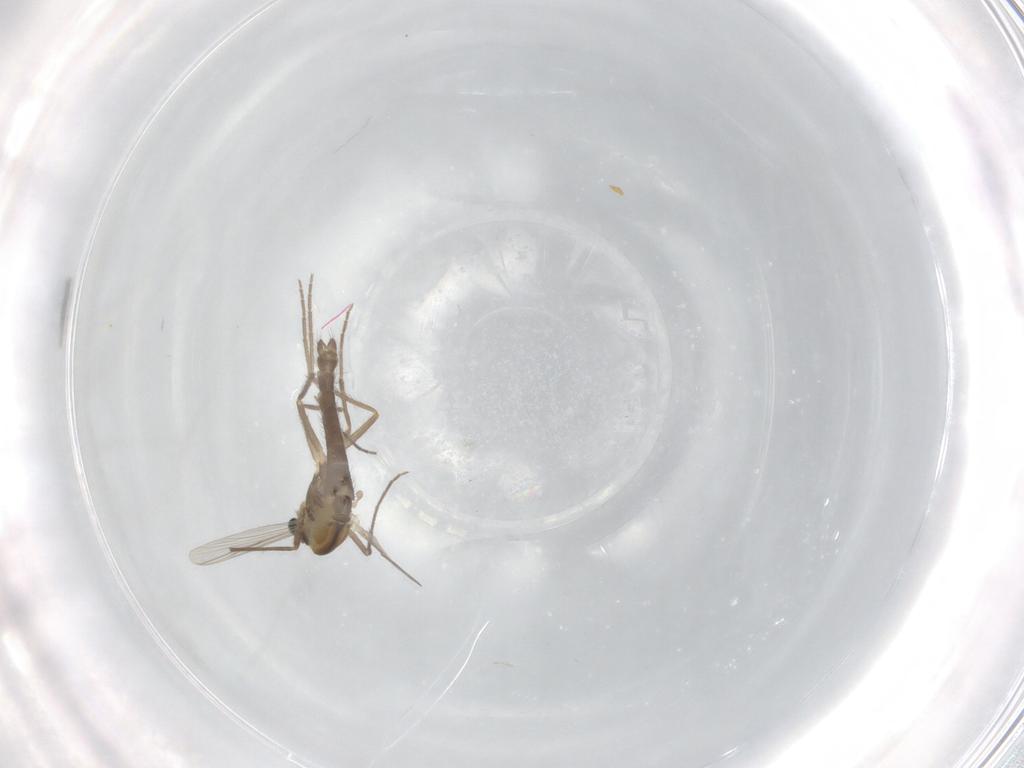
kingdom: Animalia
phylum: Arthropoda
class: Insecta
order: Diptera
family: Chironomidae
